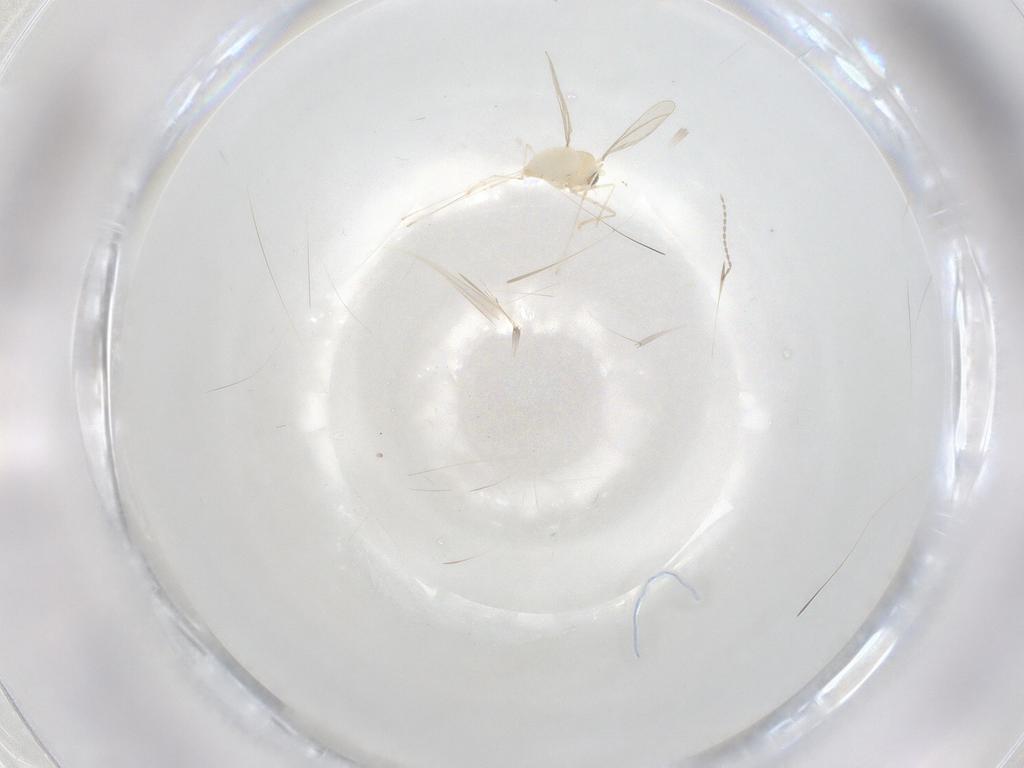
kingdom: Animalia
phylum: Arthropoda
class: Insecta
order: Diptera
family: Cecidomyiidae
